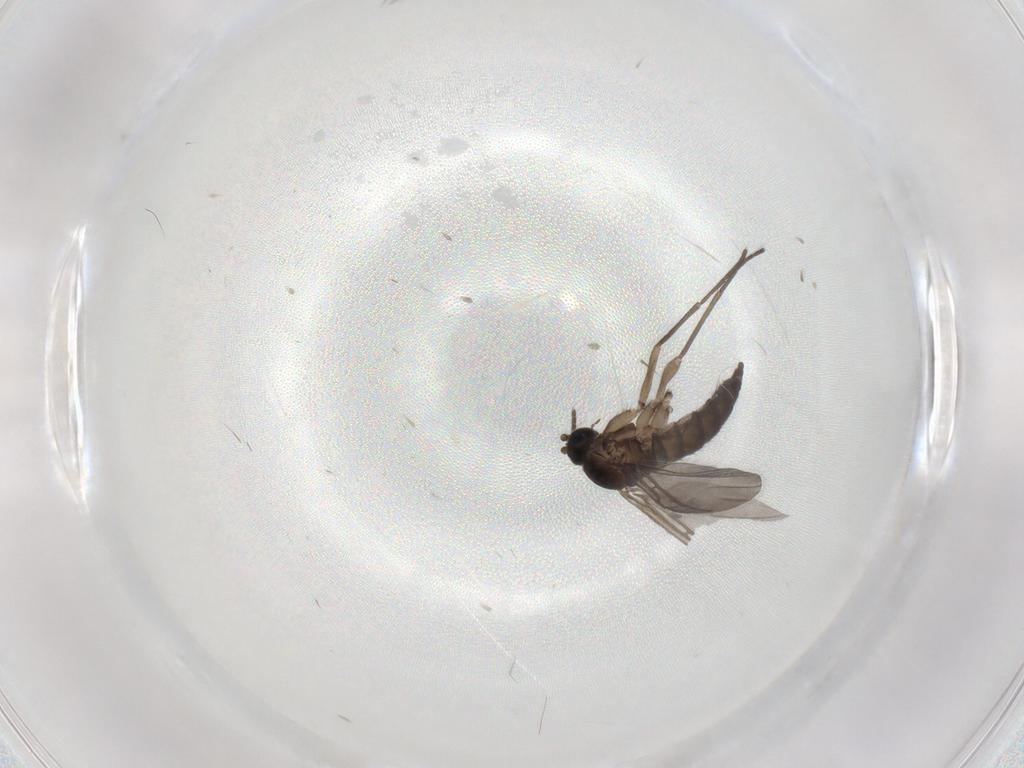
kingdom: Animalia
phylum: Arthropoda
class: Insecta
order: Diptera
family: Sciaridae
